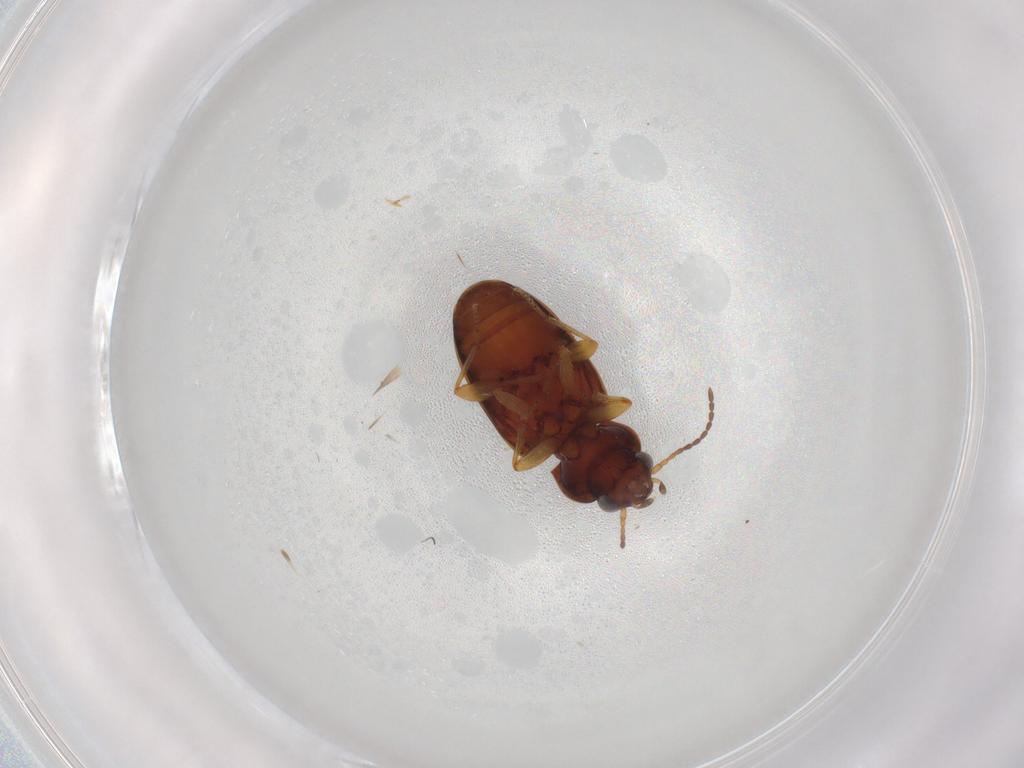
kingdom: Animalia
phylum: Arthropoda
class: Insecta
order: Coleoptera
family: Carabidae
